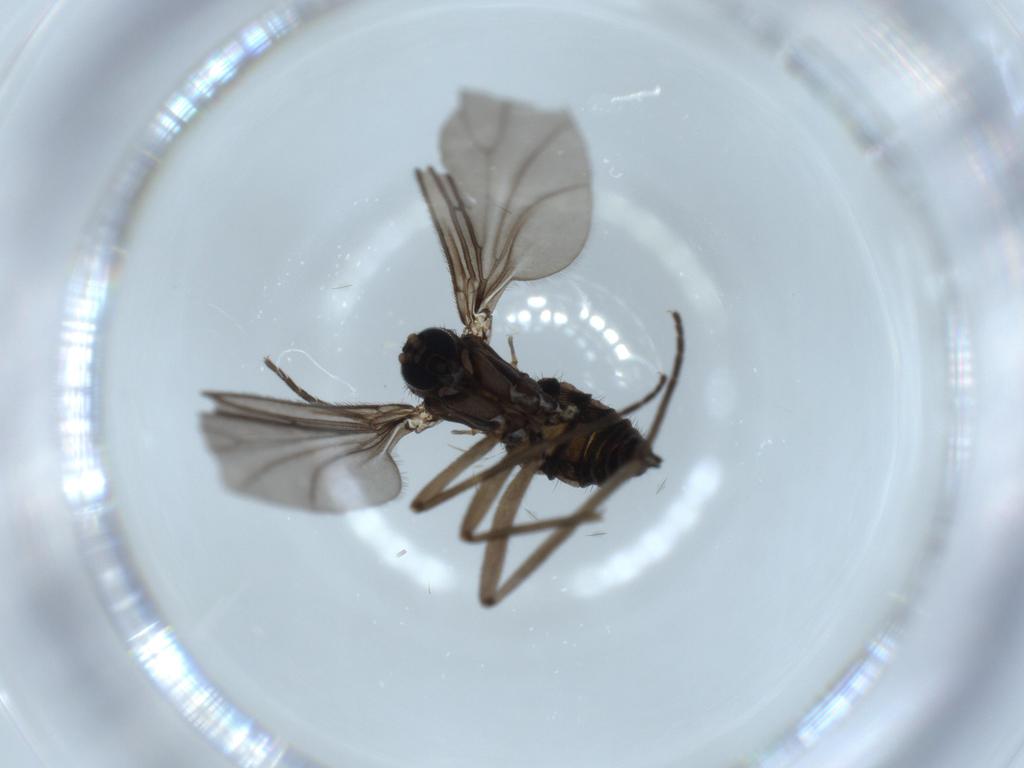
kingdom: Animalia
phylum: Arthropoda
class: Insecta
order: Diptera
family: Sciaridae
